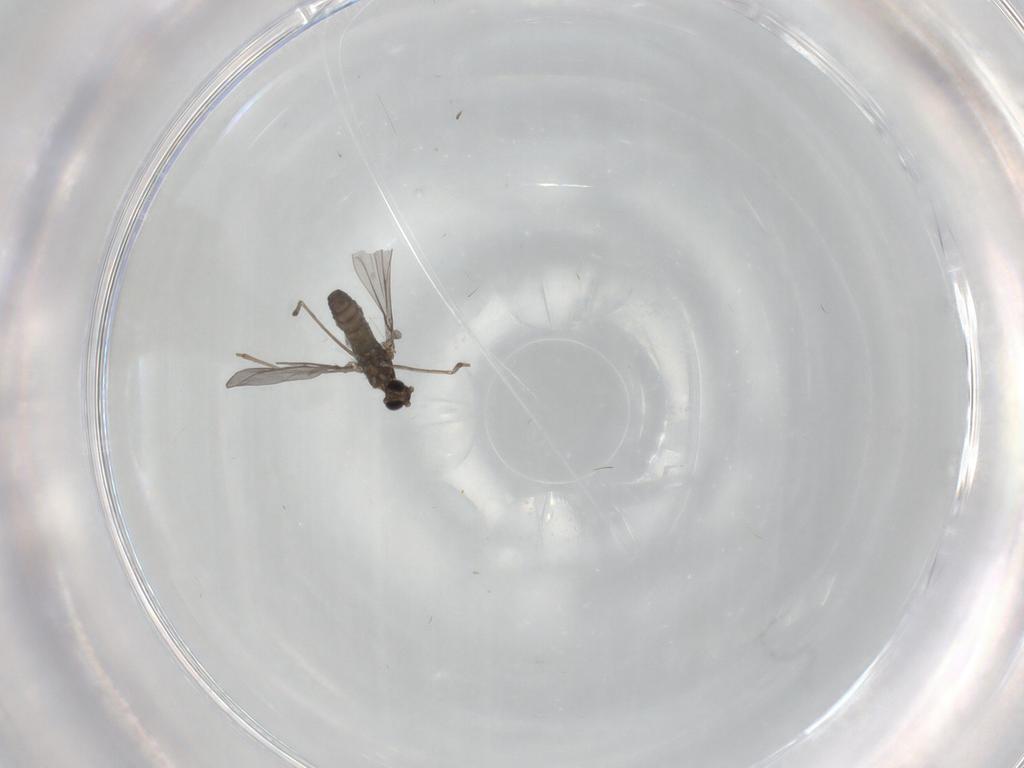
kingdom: Animalia
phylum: Arthropoda
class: Insecta
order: Diptera
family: Cecidomyiidae
